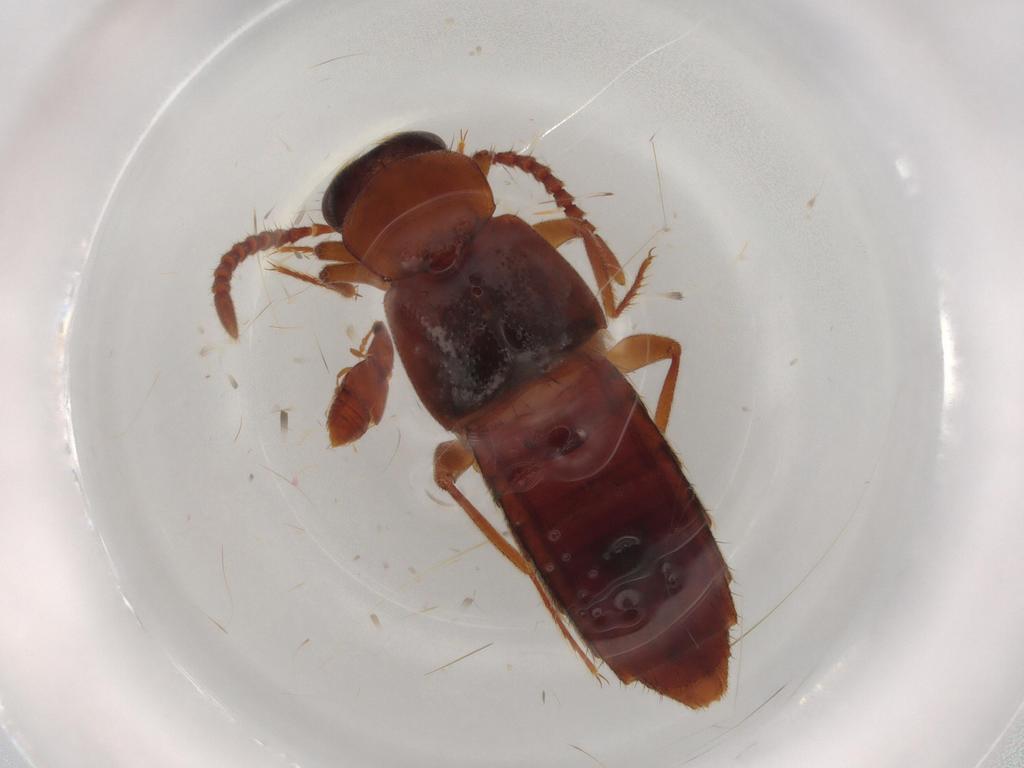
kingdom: Animalia
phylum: Arthropoda
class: Insecta
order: Coleoptera
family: Staphylinidae
